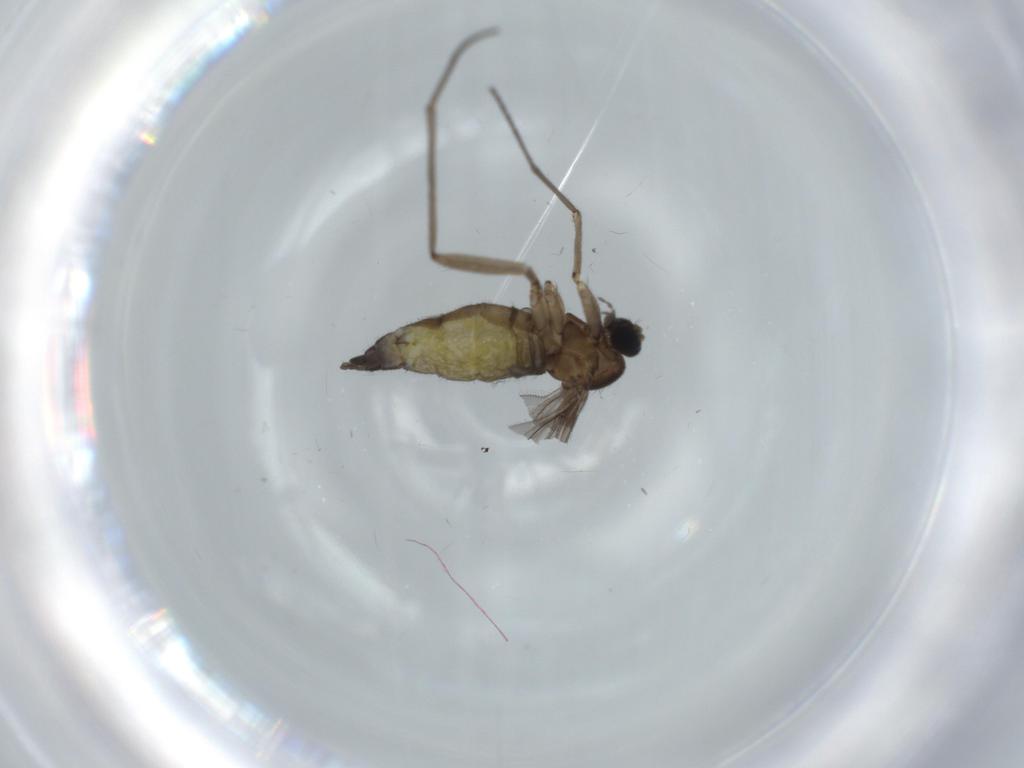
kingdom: Animalia
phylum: Arthropoda
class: Insecta
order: Diptera
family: Sciaridae
